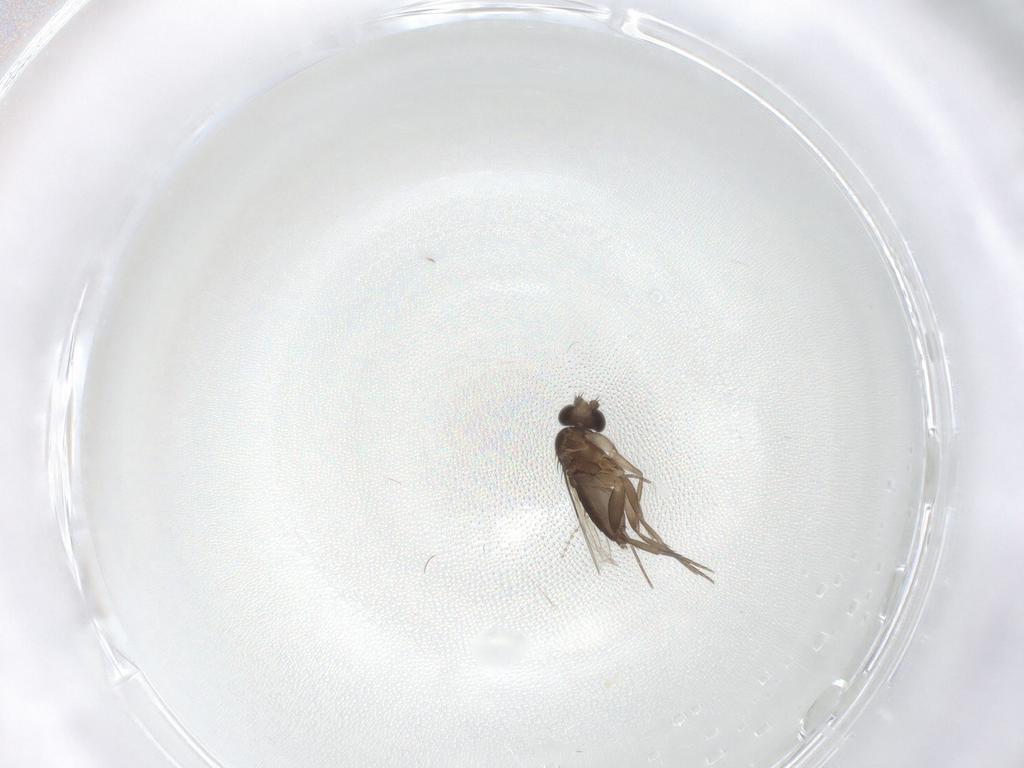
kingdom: Animalia
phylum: Arthropoda
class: Insecta
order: Diptera
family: Phoridae
